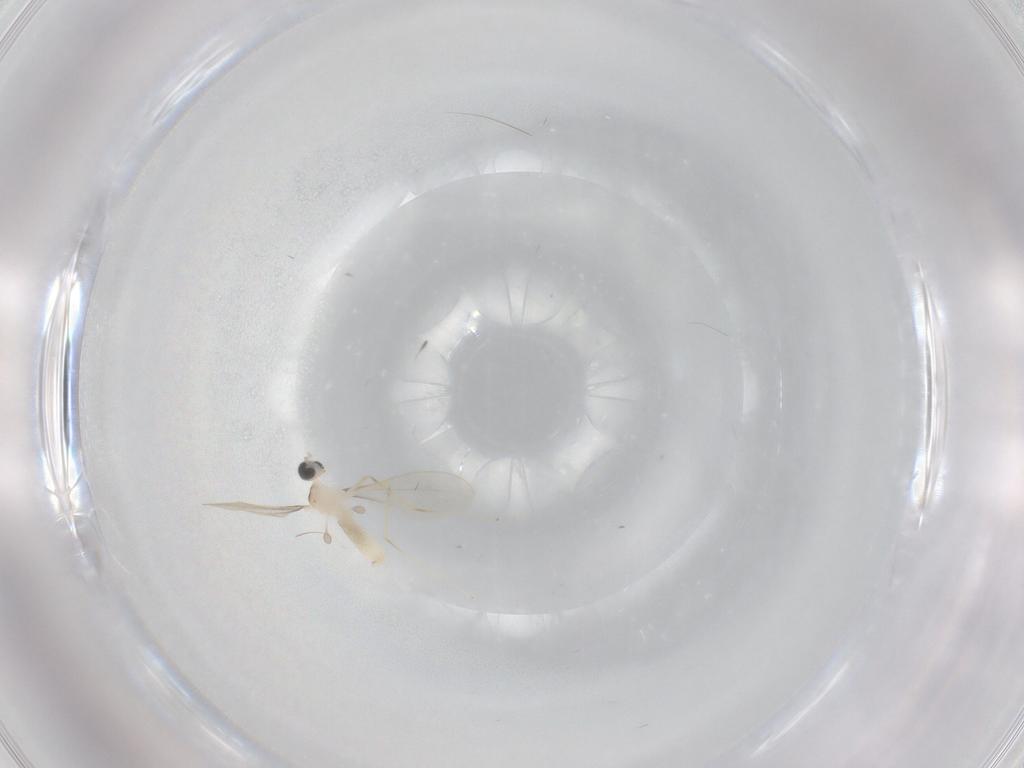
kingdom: Animalia
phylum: Arthropoda
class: Insecta
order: Diptera
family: Cecidomyiidae
